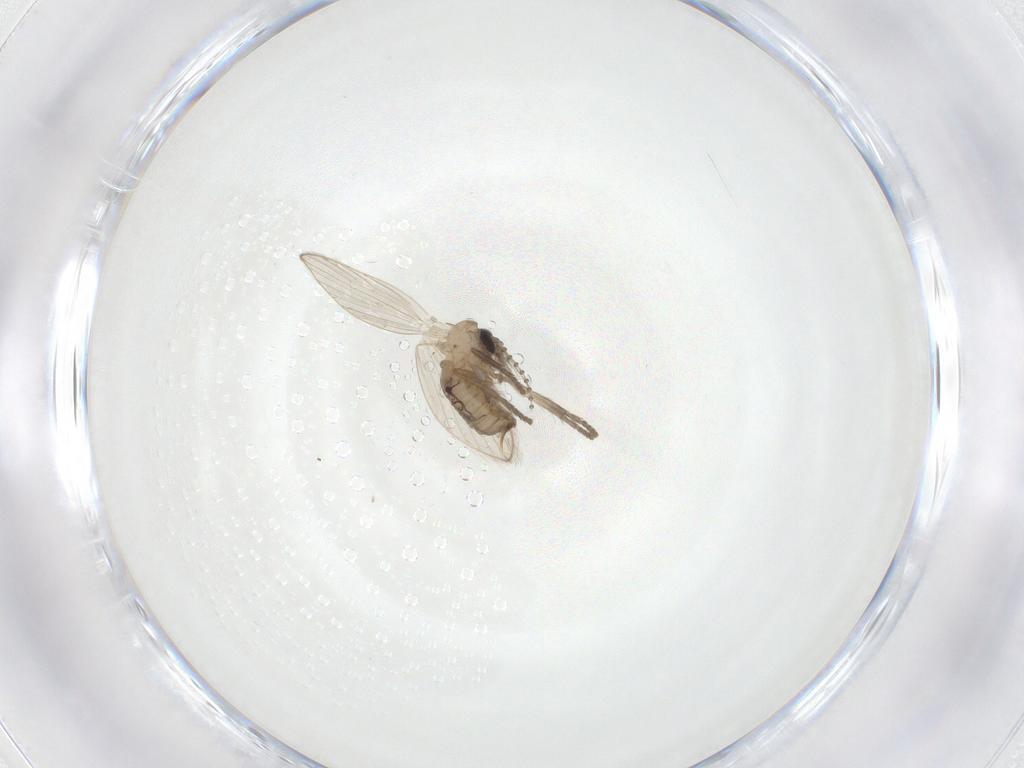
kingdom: Animalia
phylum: Arthropoda
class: Insecta
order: Diptera
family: Psychodidae
